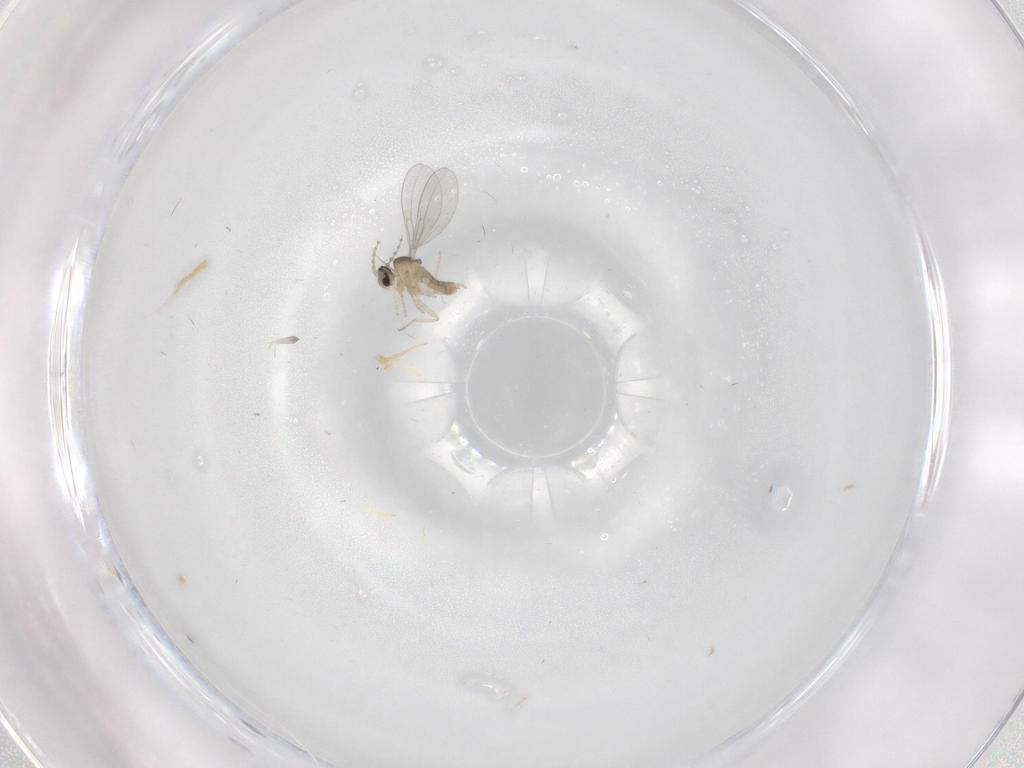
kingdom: Animalia
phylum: Arthropoda
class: Insecta
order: Diptera
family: Cecidomyiidae
